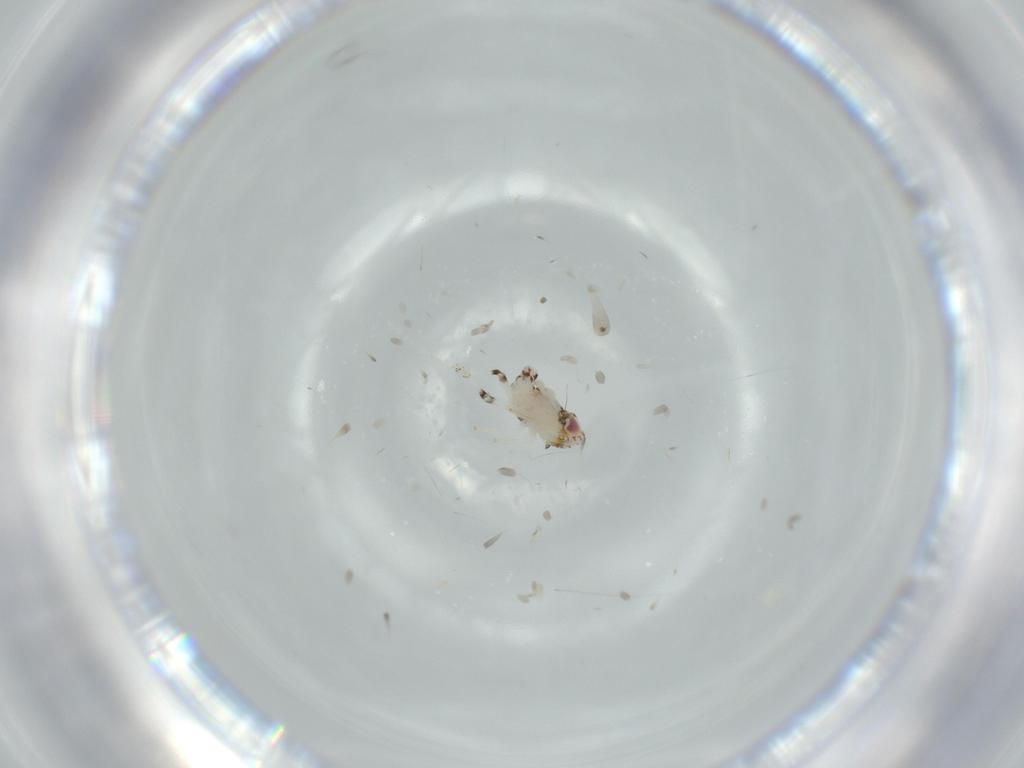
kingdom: Animalia
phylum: Arthropoda
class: Insecta
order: Hemiptera
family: Nogodinidae
